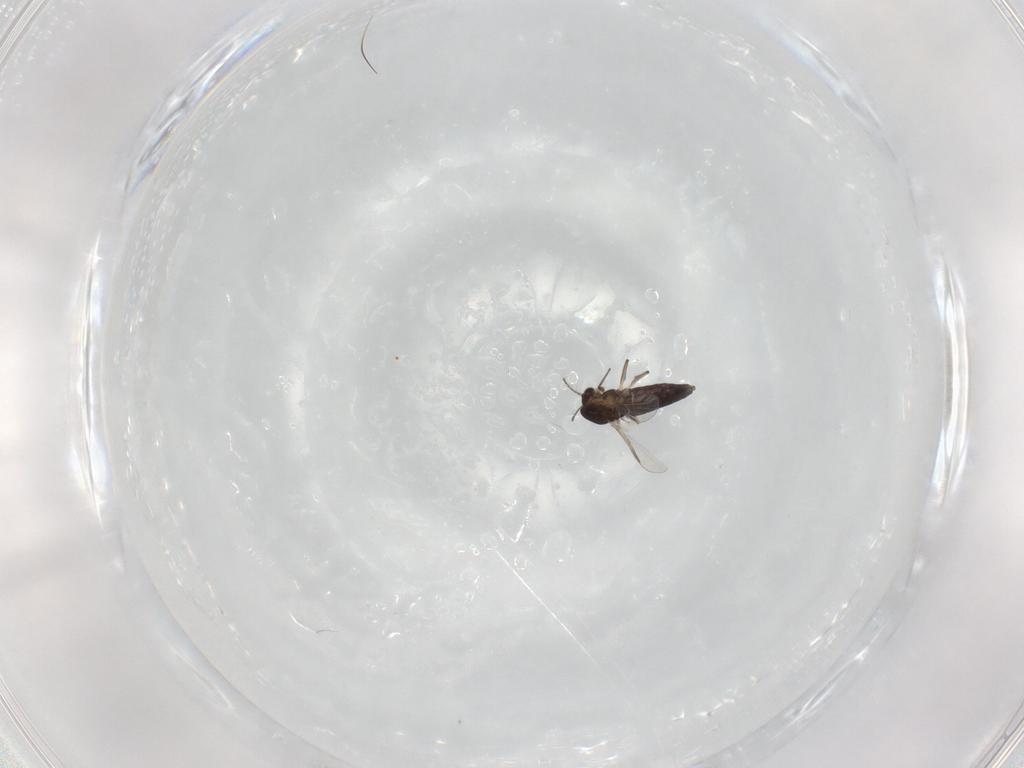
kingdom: Animalia
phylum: Arthropoda
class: Insecta
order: Diptera
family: Chironomidae
